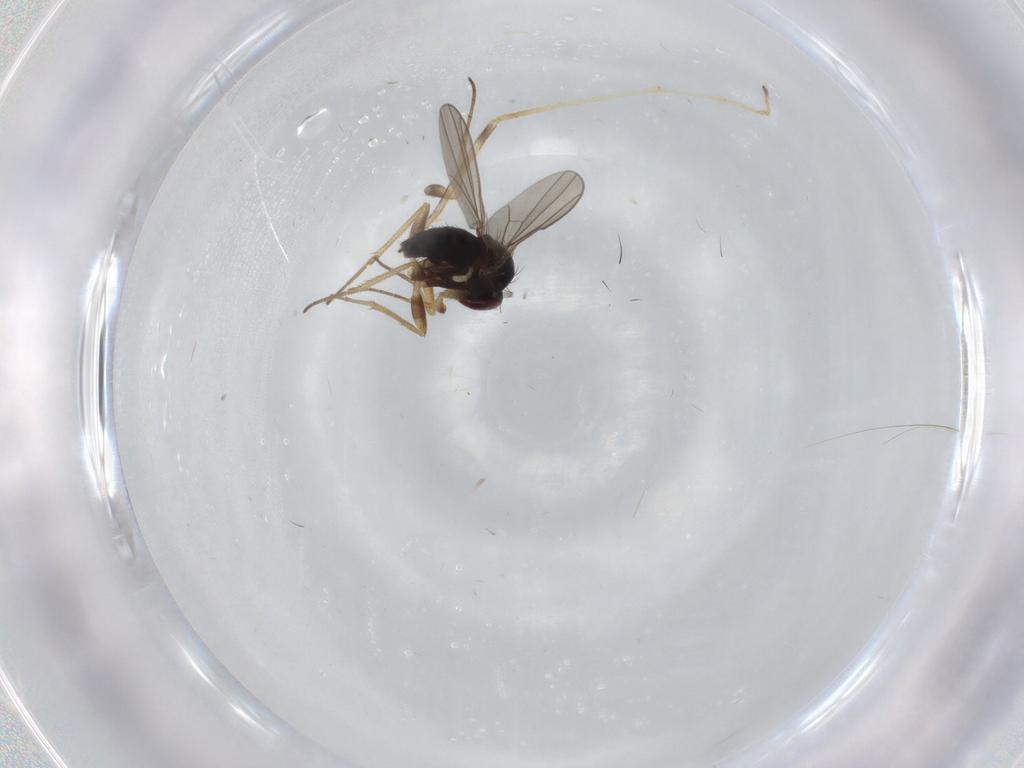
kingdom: Animalia
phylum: Arthropoda
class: Insecta
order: Diptera
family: Dolichopodidae
